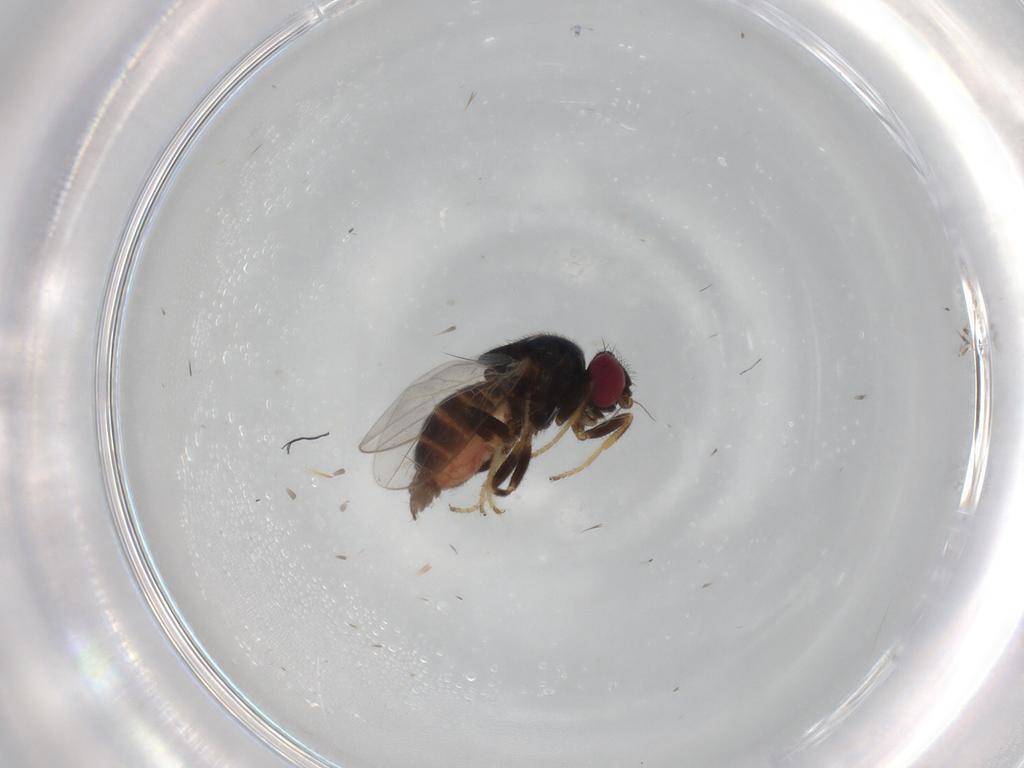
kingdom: Animalia
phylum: Arthropoda
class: Insecta
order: Diptera
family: Chloropidae
